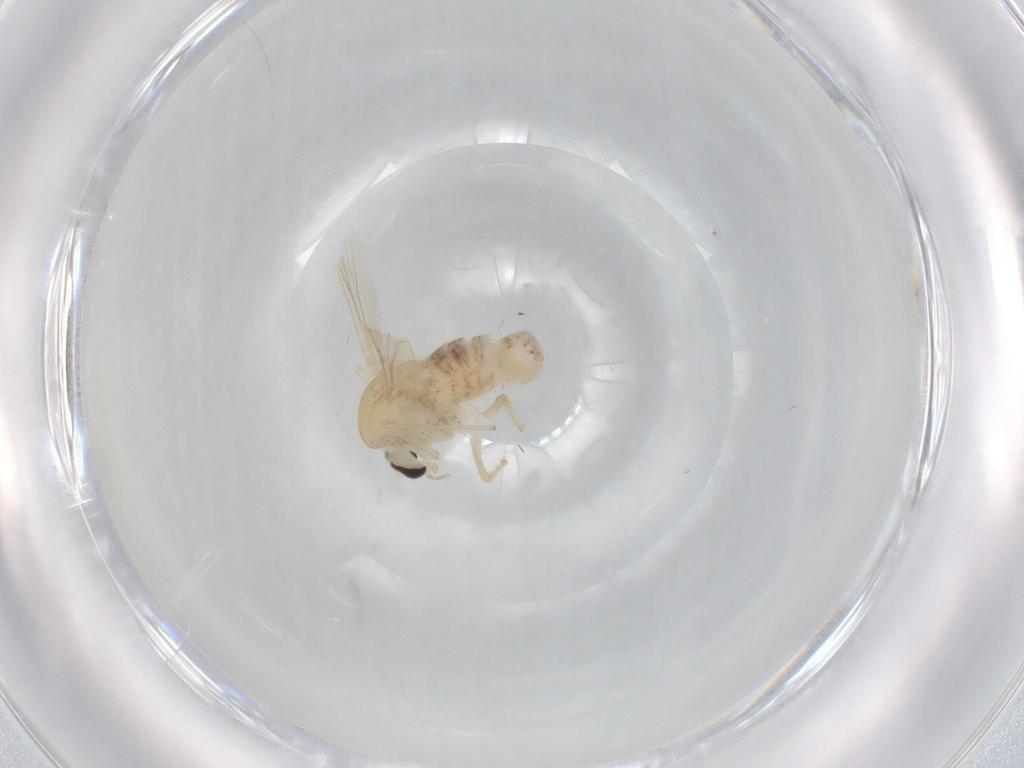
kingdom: Animalia
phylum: Arthropoda
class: Insecta
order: Diptera
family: Chironomidae
